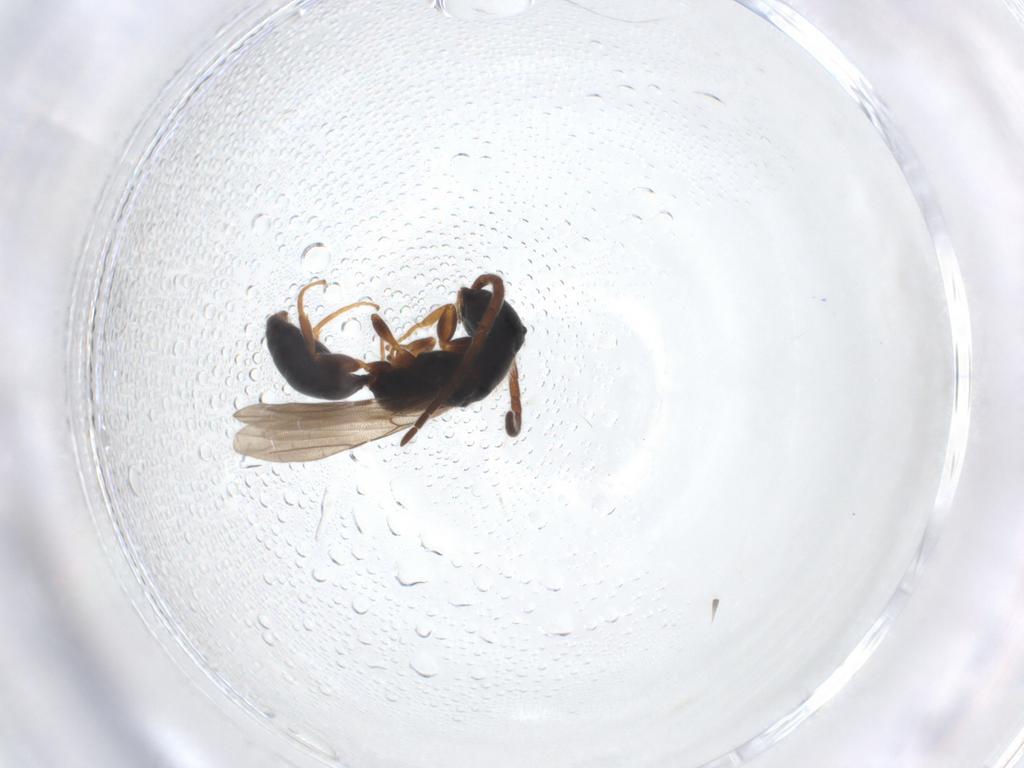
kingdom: Animalia
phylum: Arthropoda
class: Insecta
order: Hymenoptera
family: Bethylidae
